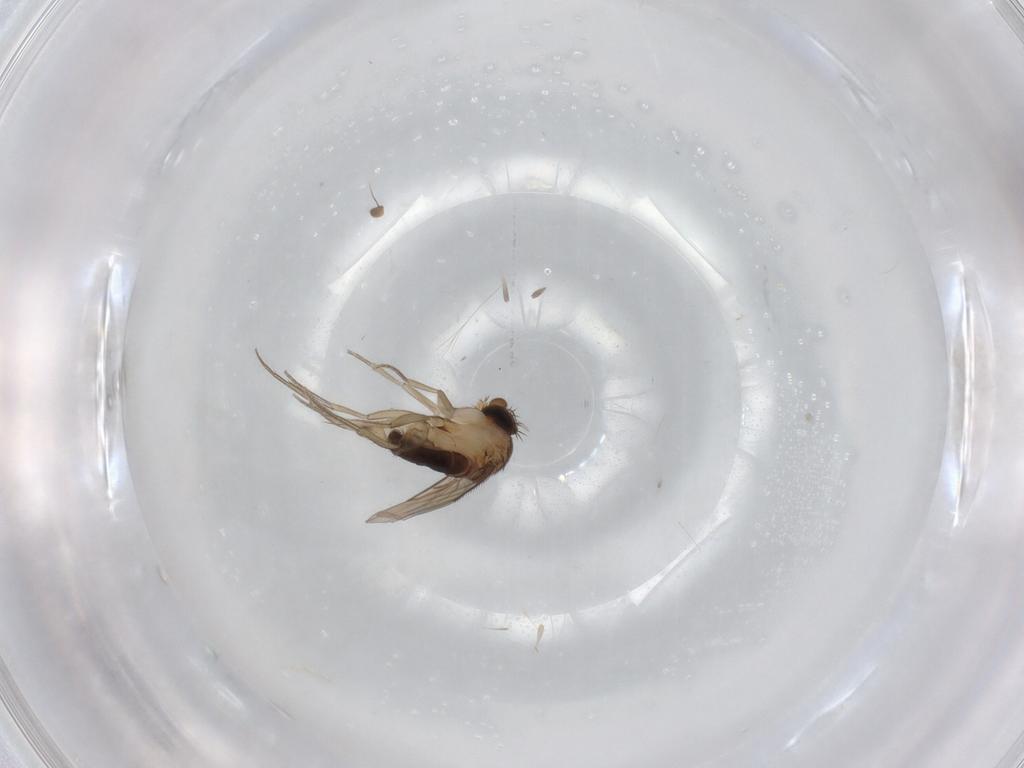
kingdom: Animalia
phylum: Arthropoda
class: Insecta
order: Diptera
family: Phoridae
